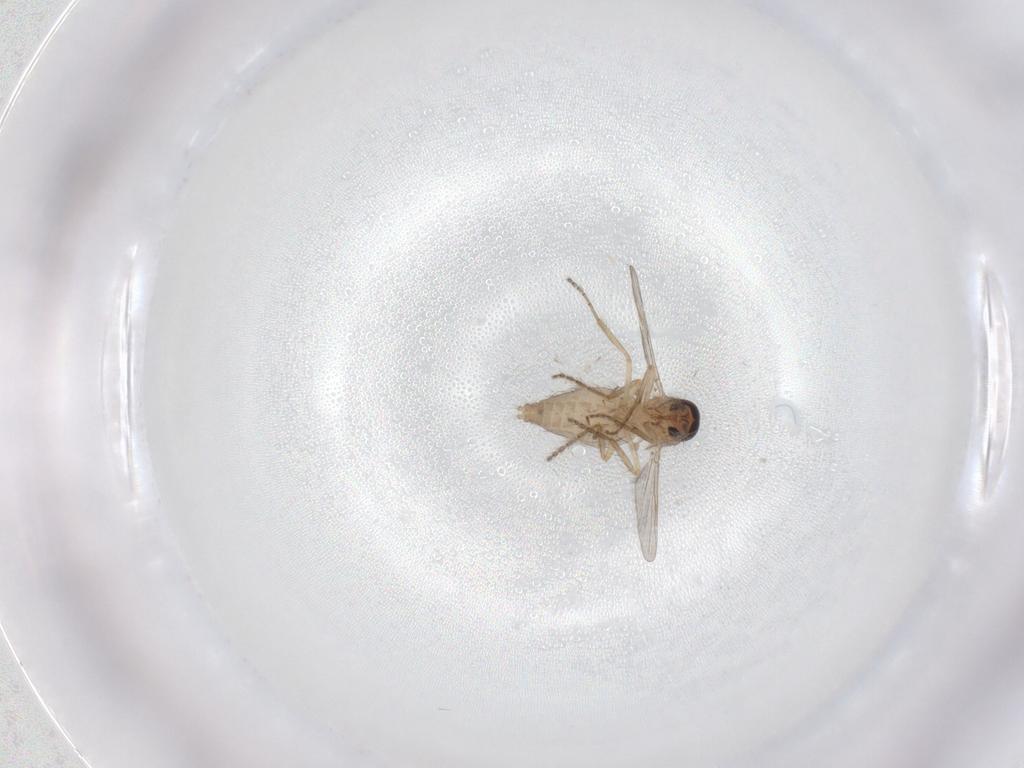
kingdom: Animalia
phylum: Arthropoda
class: Insecta
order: Diptera
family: Ceratopogonidae
